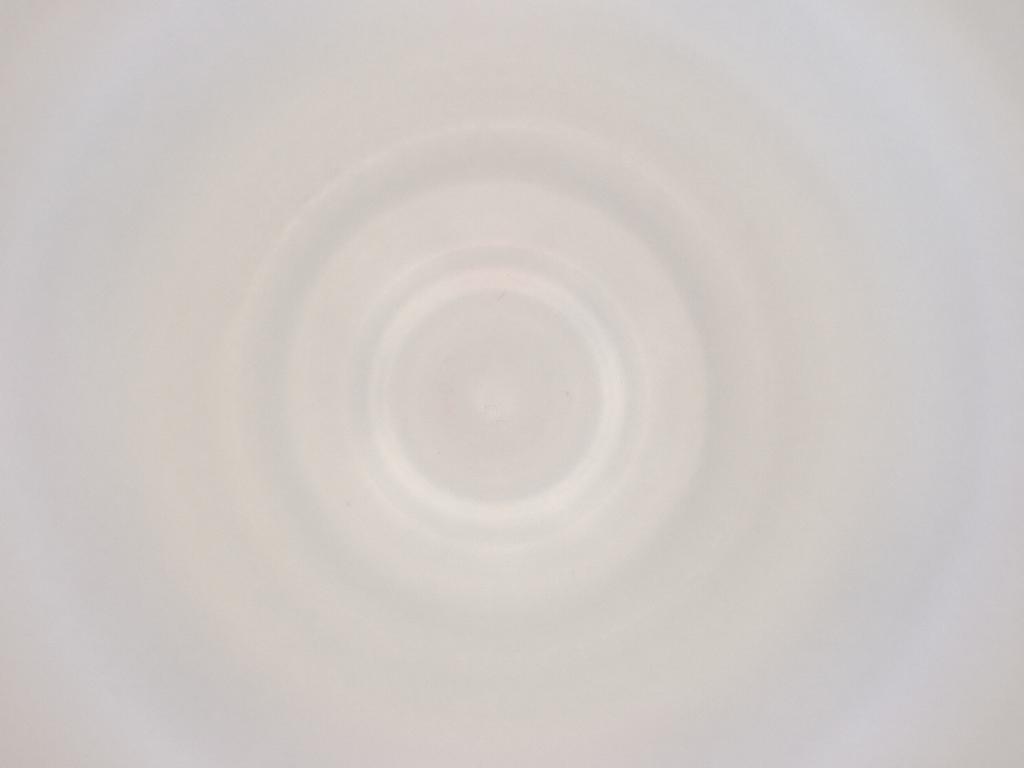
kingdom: Animalia
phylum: Arthropoda
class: Insecta
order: Diptera
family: Cecidomyiidae
